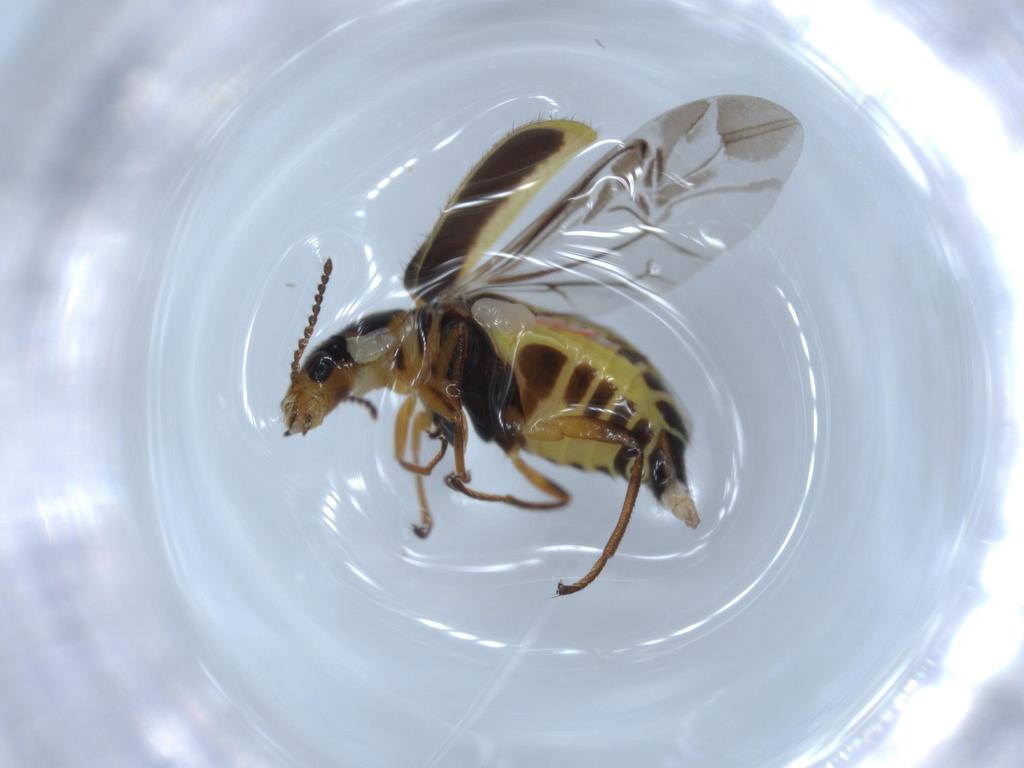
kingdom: Animalia
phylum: Arthropoda
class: Insecta
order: Coleoptera
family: Melyridae
